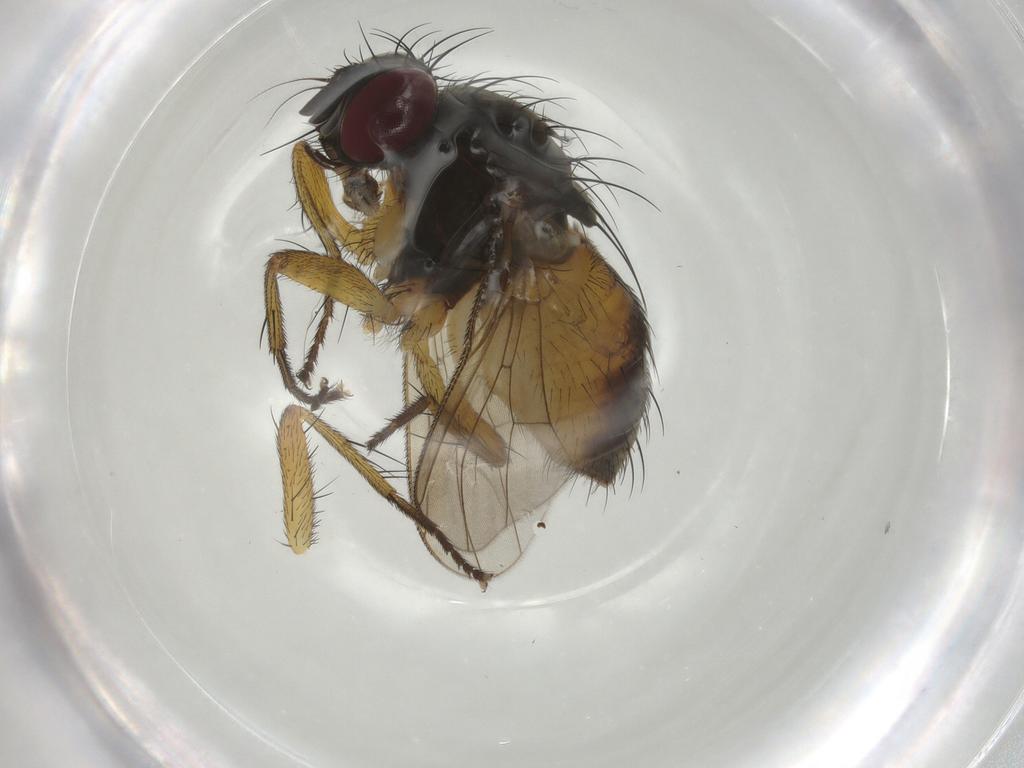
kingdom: Animalia
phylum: Arthropoda
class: Insecta
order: Diptera
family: Muscidae
